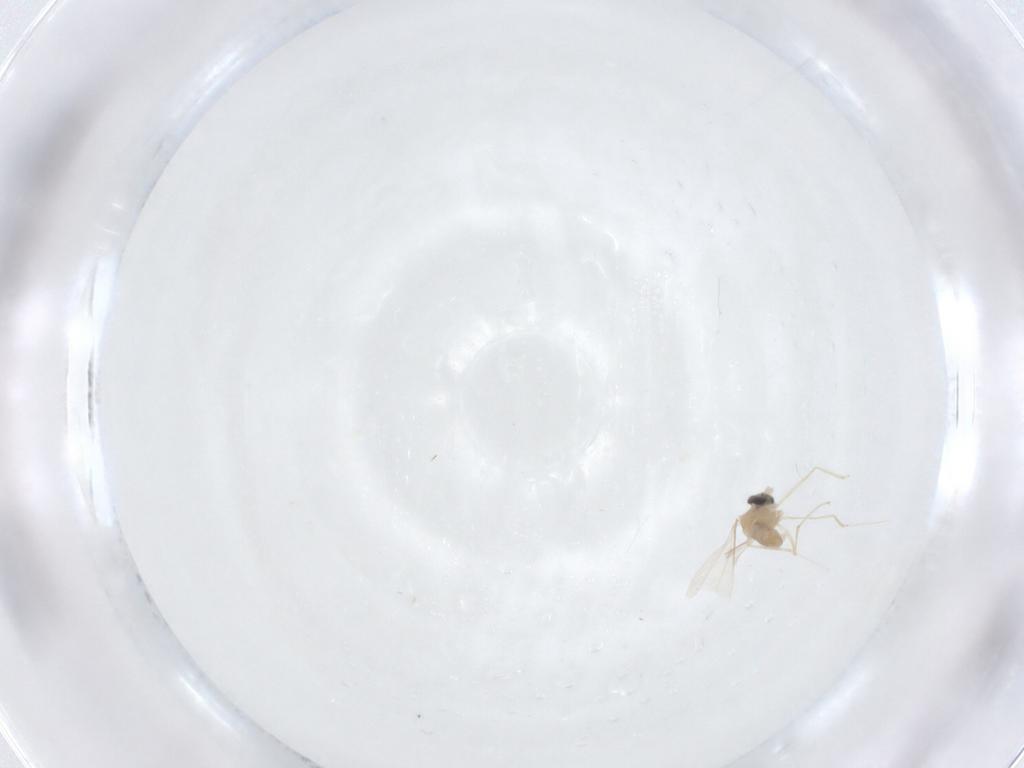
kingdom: Animalia
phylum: Arthropoda
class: Insecta
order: Diptera
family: Cecidomyiidae
